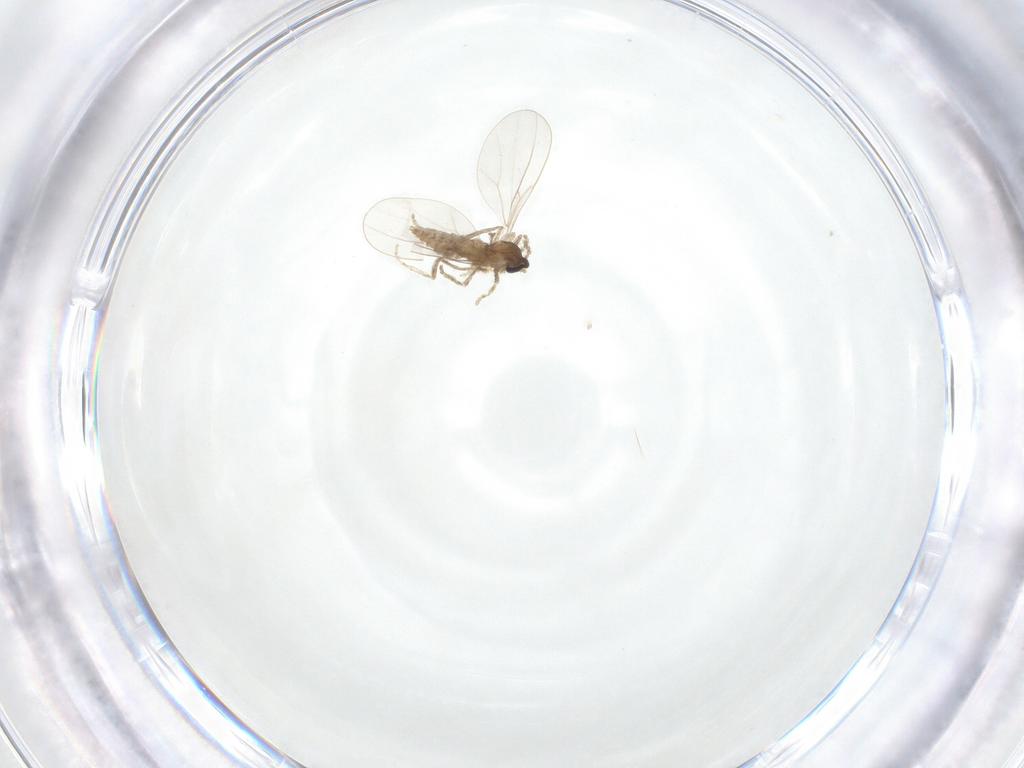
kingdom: Animalia
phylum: Arthropoda
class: Insecta
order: Diptera
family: Cecidomyiidae
